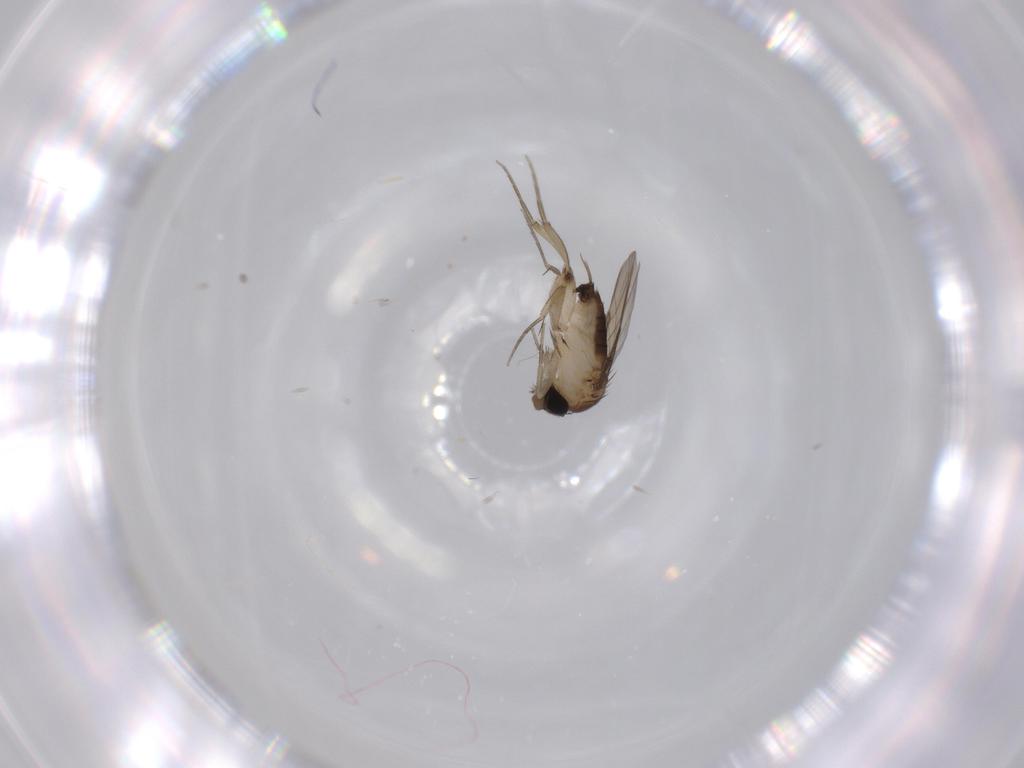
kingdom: Animalia
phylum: Arthropoda
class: Insecta
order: Diptera
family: Phoridae
